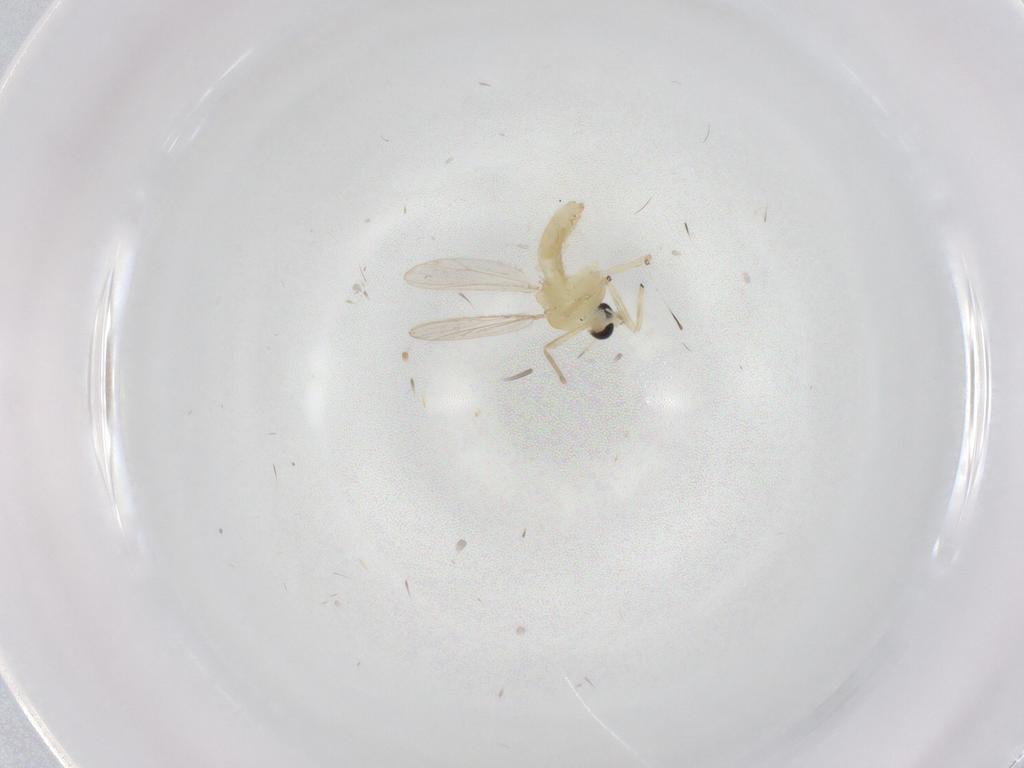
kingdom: Animalia
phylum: Arthropoda
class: Insecta
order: Diptera
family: Chironomidae
